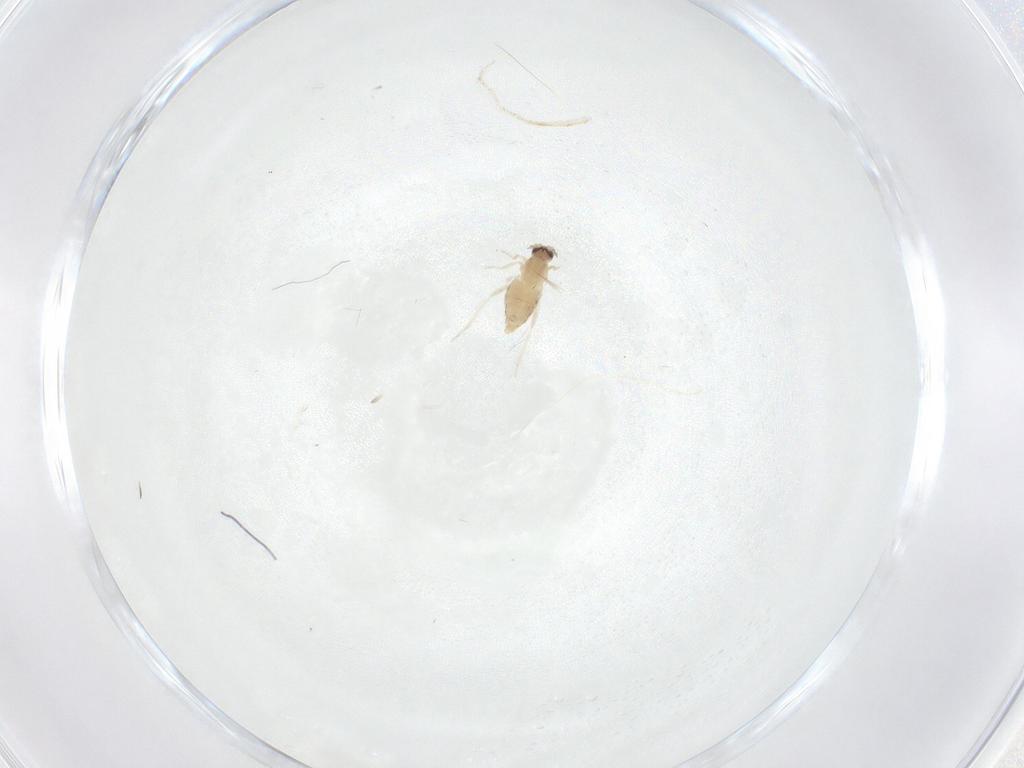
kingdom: Animalia
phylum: Arthropoda
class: Insecta
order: Diptera
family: Cecidomyiidae
